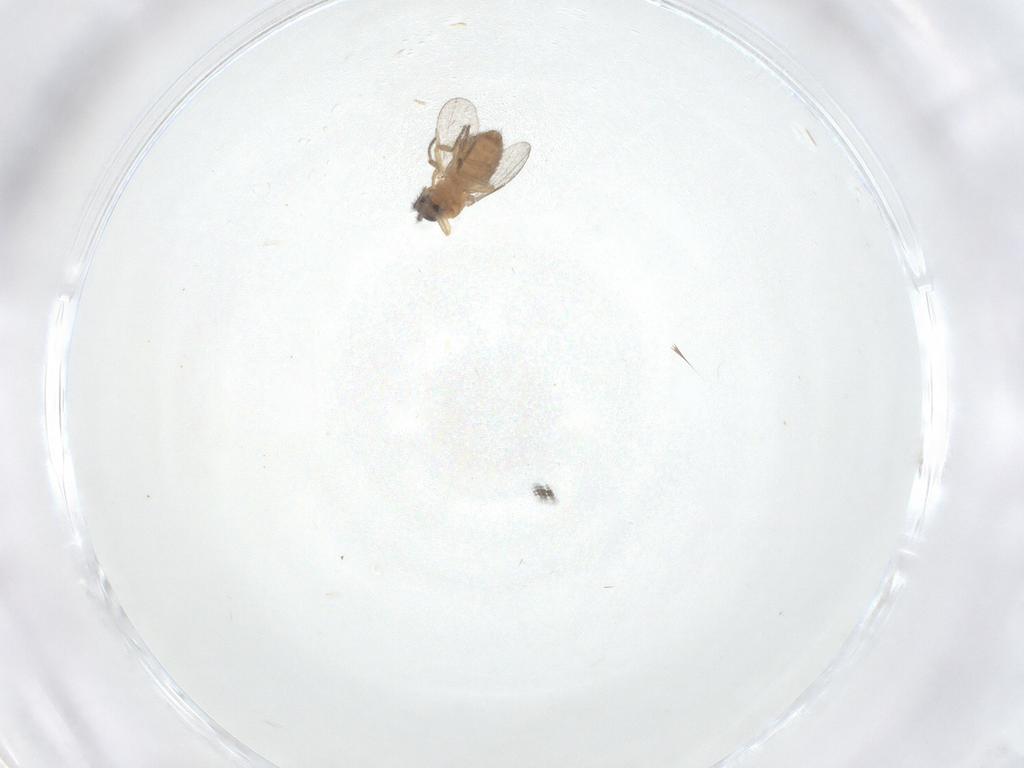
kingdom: Animalia
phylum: Arthropoda
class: Insecta
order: Diptera
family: Ceratopogonidae
